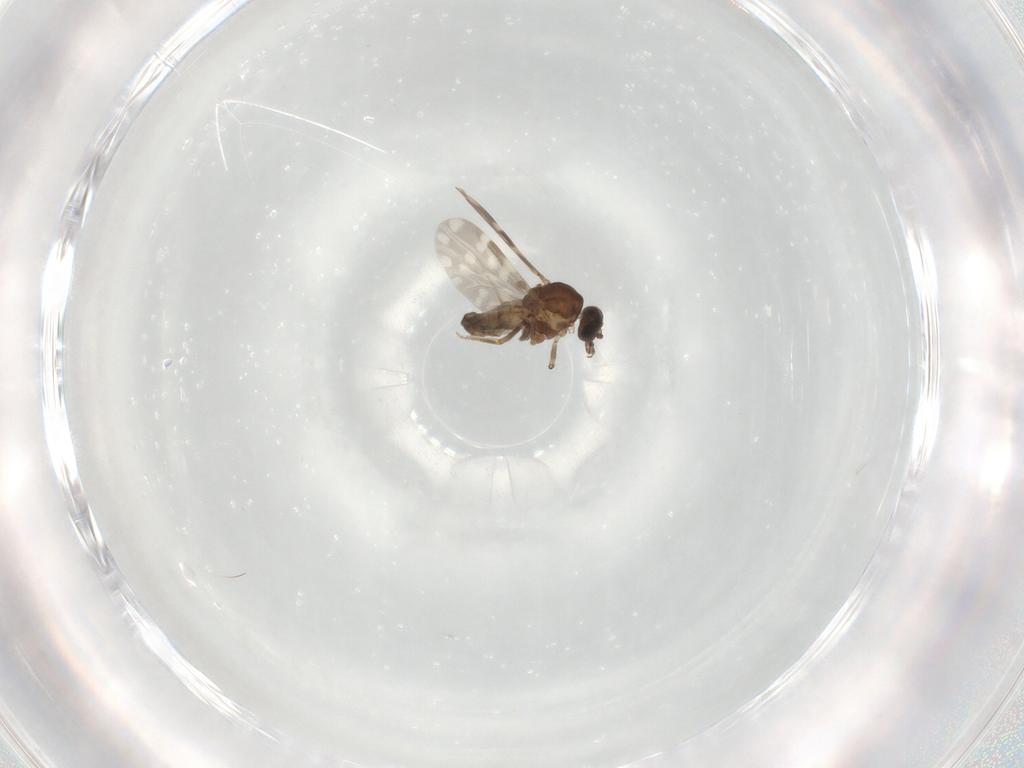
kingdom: Animalia
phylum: Arthropoda
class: Insecta
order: Diptera
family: Ceratopogonidae
